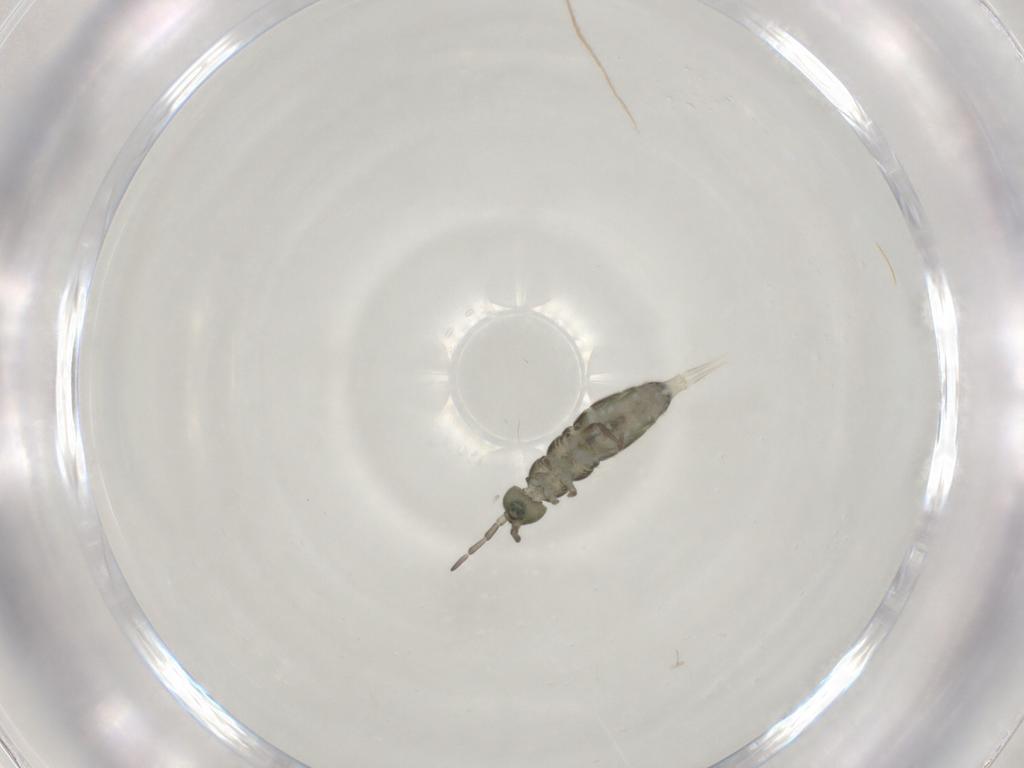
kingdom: Animalia
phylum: Arthropoda
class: Collembola
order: Entomobryomorpha
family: Isotomidae
